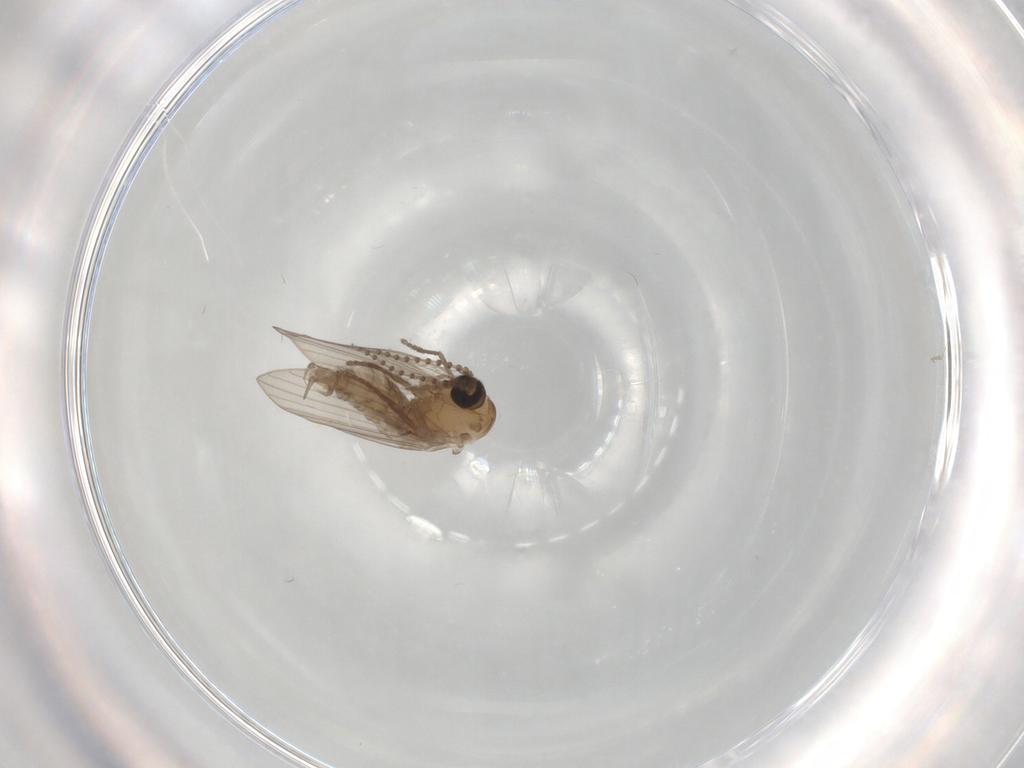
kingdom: Animalia
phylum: Arthropoda
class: Insecta
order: Diptera
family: Psychodidae
